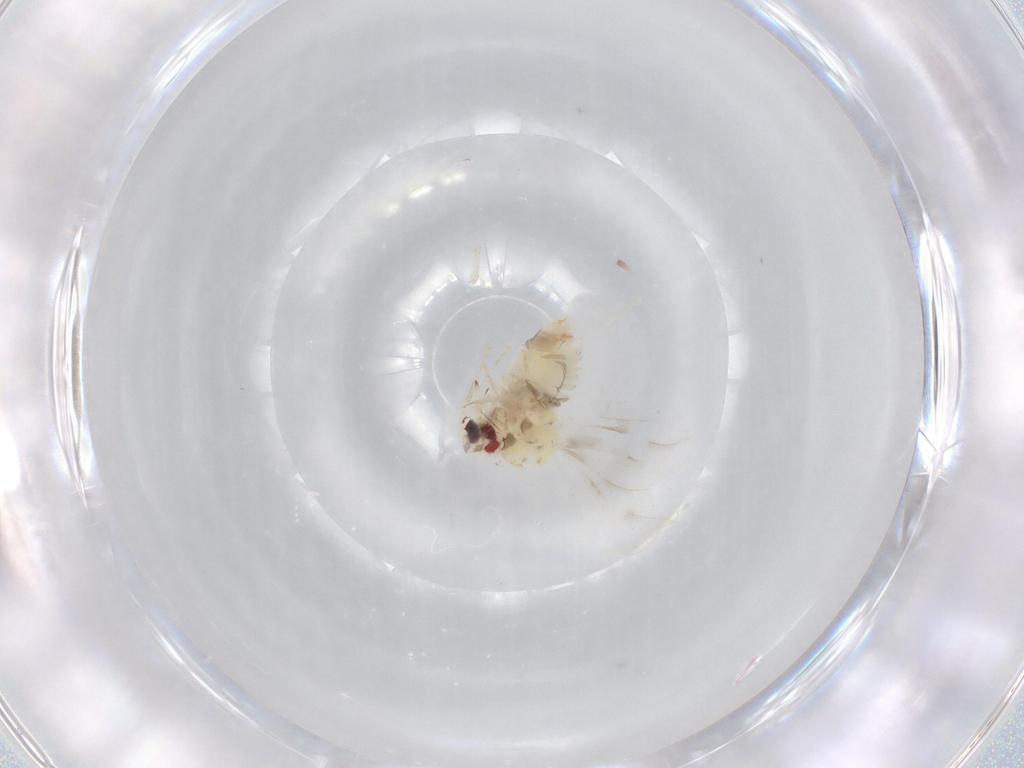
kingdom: Animalia
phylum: Arthropoda
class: Insecta
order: Hemiptera
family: Aleyrodidae
